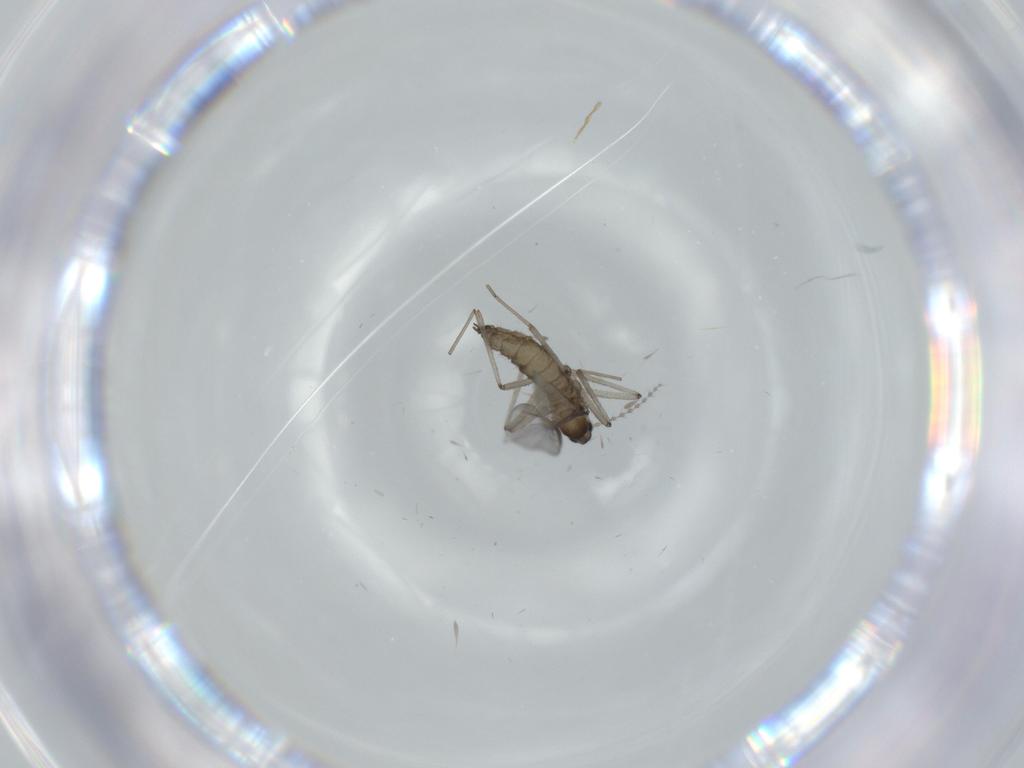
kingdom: Animalia
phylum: Arthropoda
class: Insecta
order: Diptera
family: Cecidomyiidae
